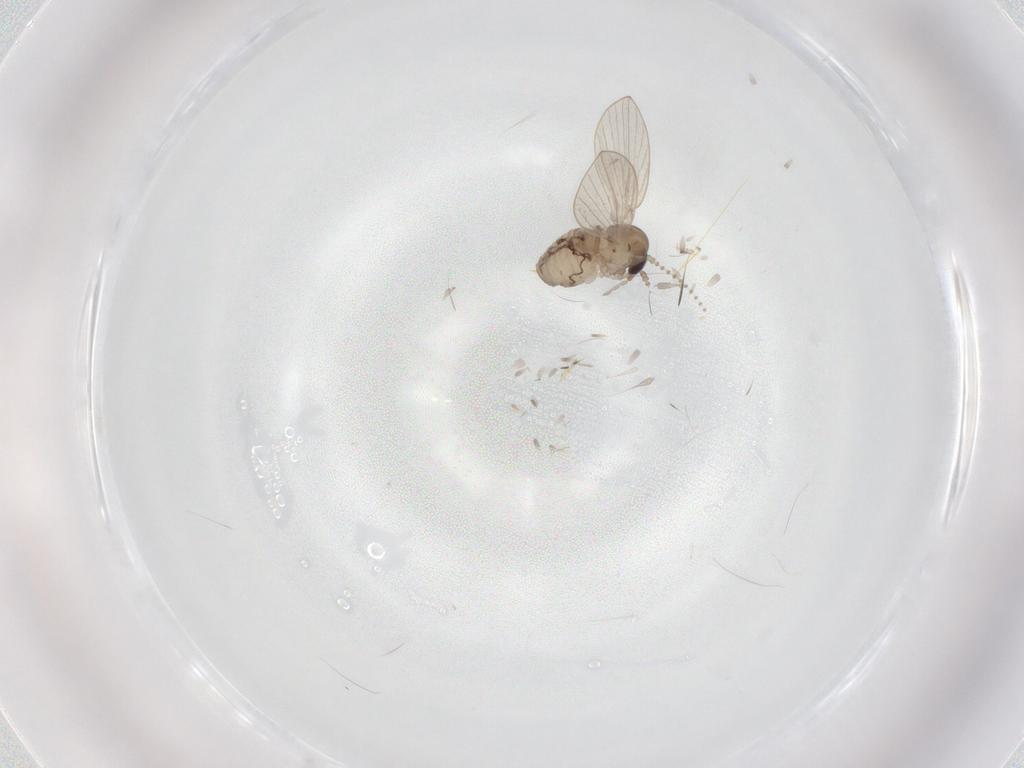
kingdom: Animalia
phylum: Arthropoda
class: Insecta
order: Diptera
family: Psychodidae
